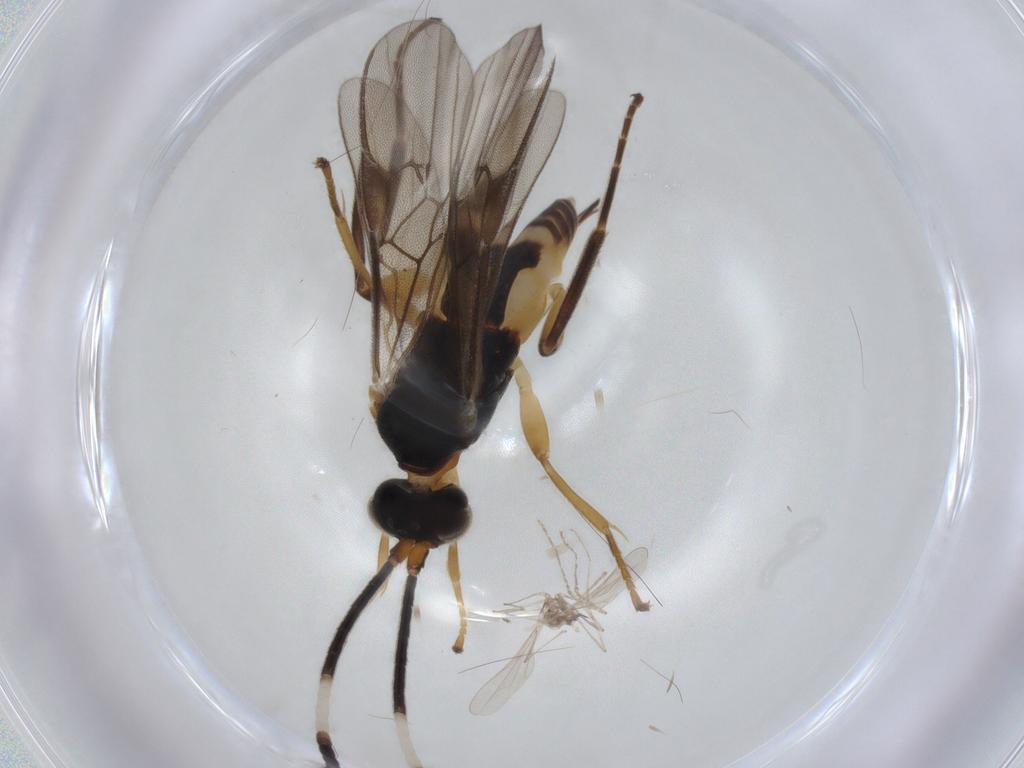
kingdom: Animalia
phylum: Arthropoda
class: Insecta
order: Hymenoptera
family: Braconidae
